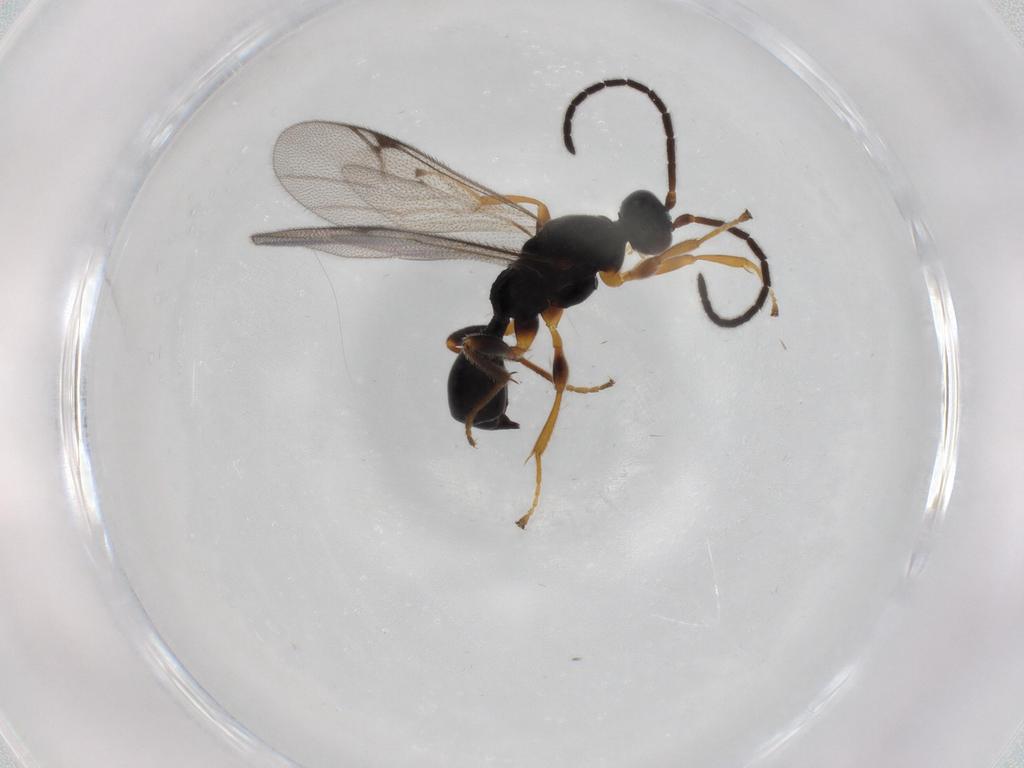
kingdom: Animalia
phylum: Arthropoda
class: Insecta
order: Hymenoptera
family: Proctotrupidae
